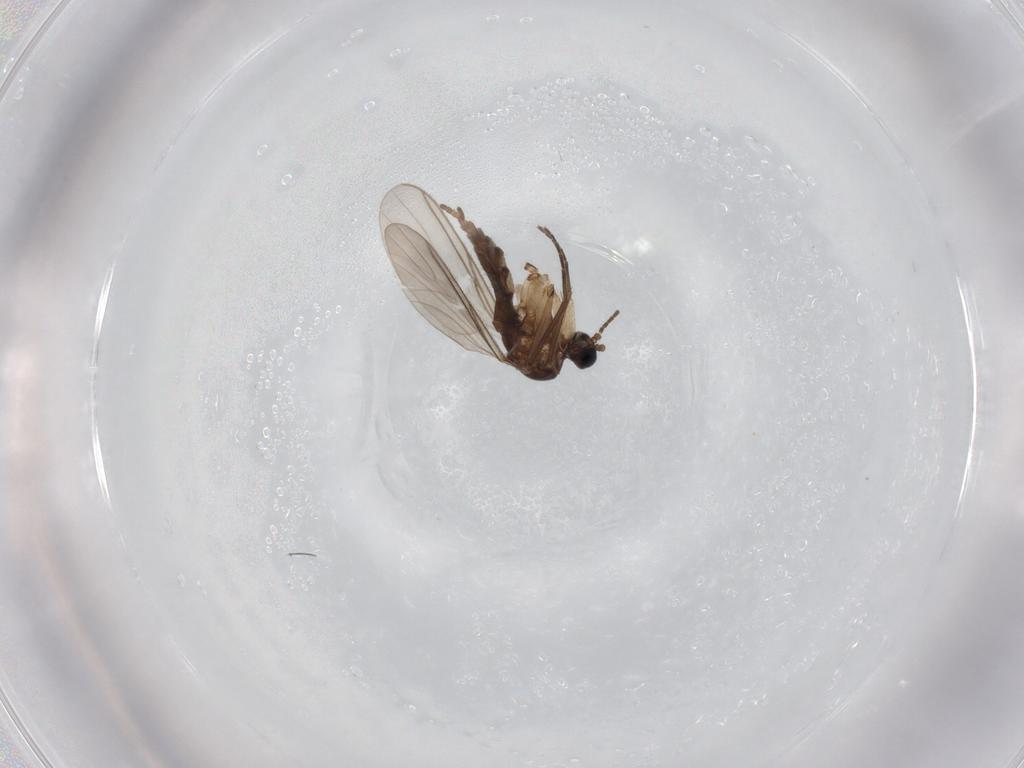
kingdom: Animalia
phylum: Arthropoda
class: Insecta
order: Diptera
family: Sciaridae
